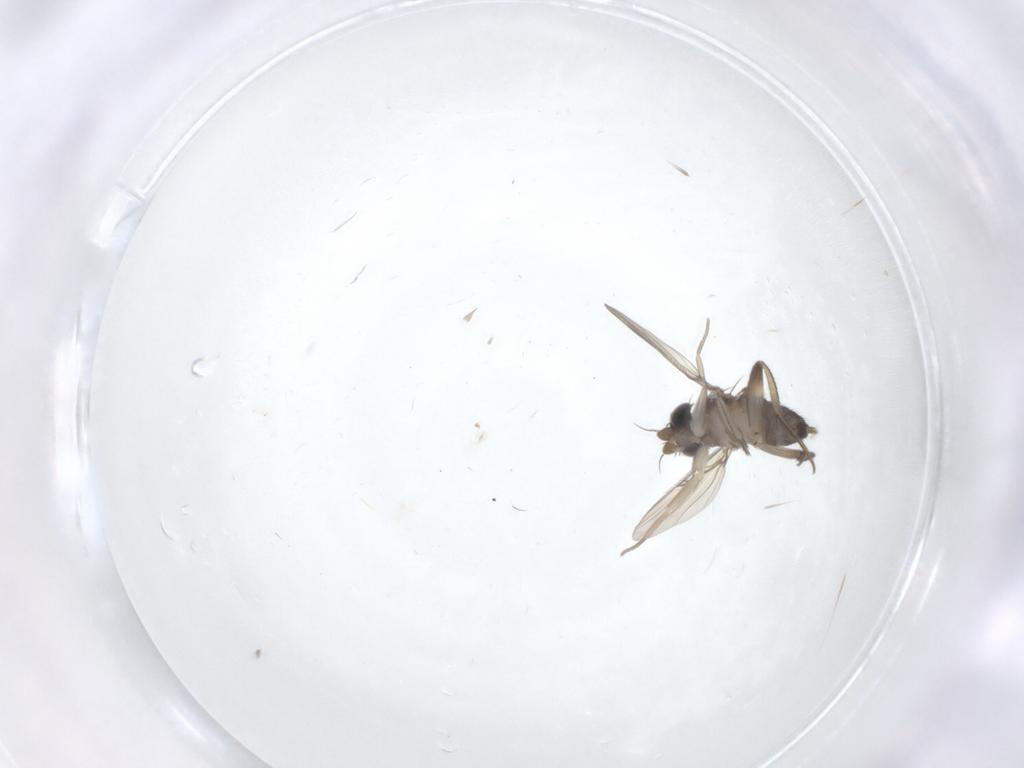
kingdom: Animalia
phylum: Arthropoda
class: Insecta
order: Diptera
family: Phoridae
